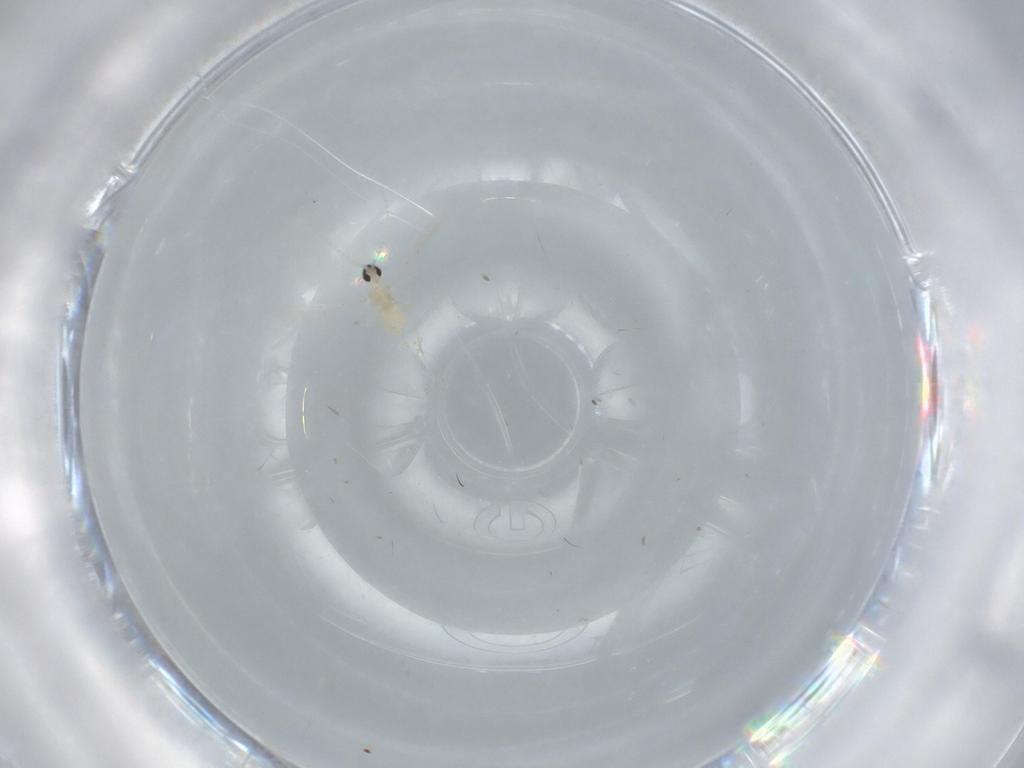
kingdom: Animalia
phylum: Arthropoda
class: Insecta
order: Diptera
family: Cecidomyiidae
